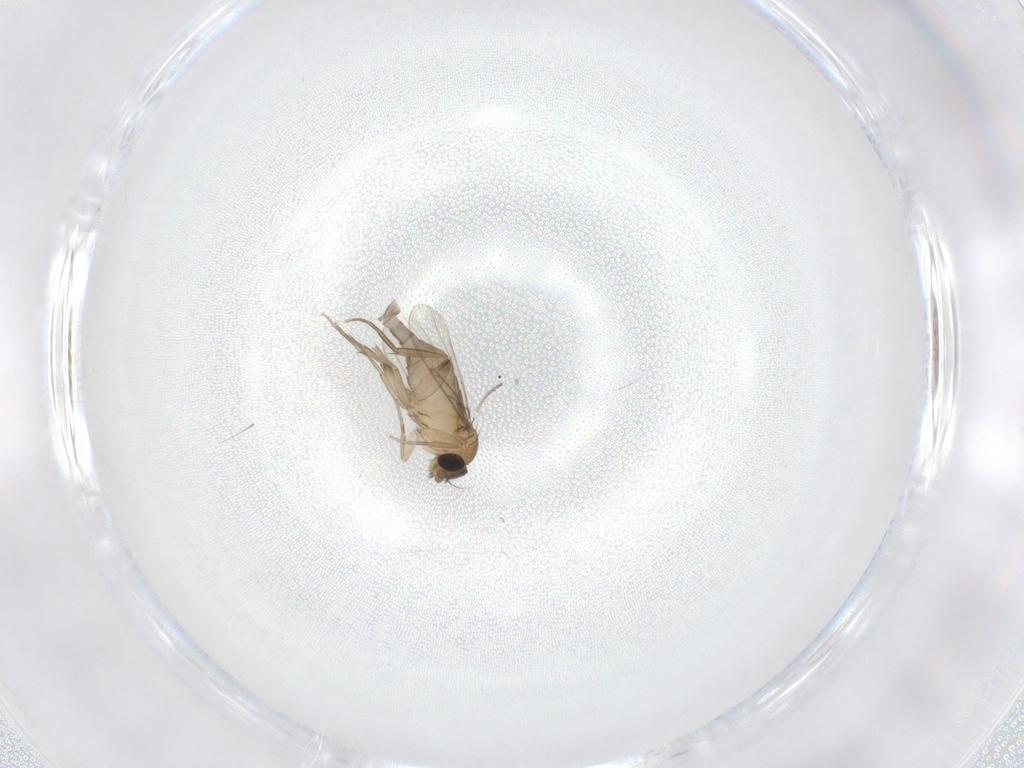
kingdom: Animalia
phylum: Arthropoda
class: Insecta
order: Diptera
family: Phoridae
